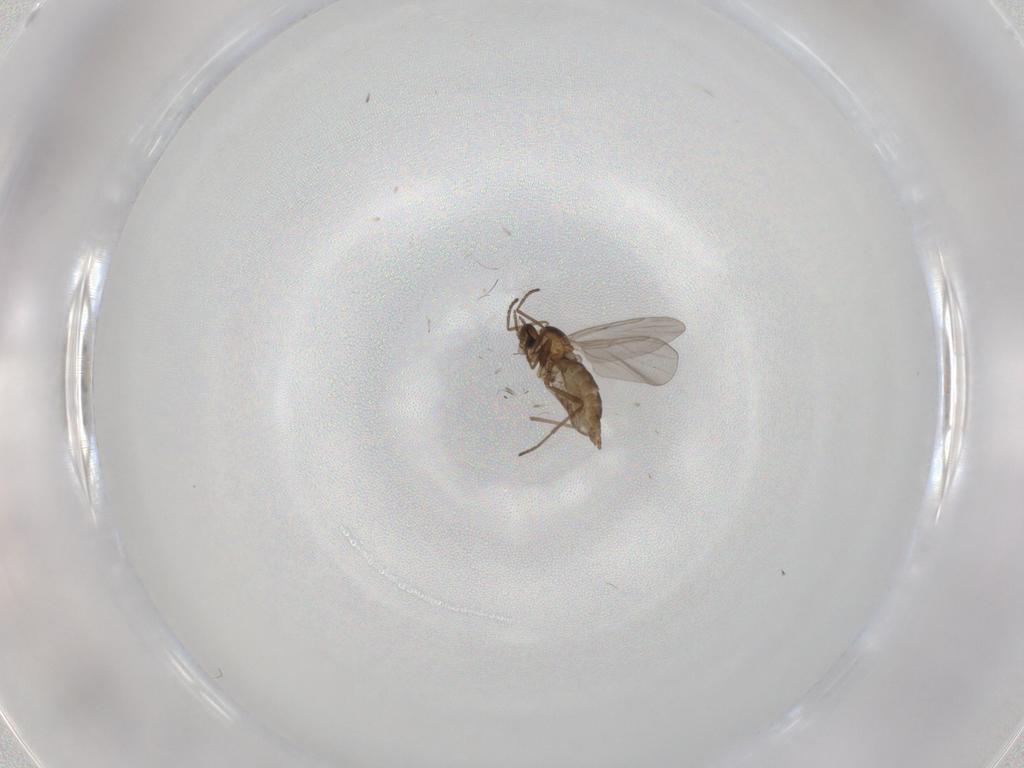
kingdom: Animalia
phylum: Arthropoda
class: Insecta
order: Diptera
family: Cecidomyiidae
